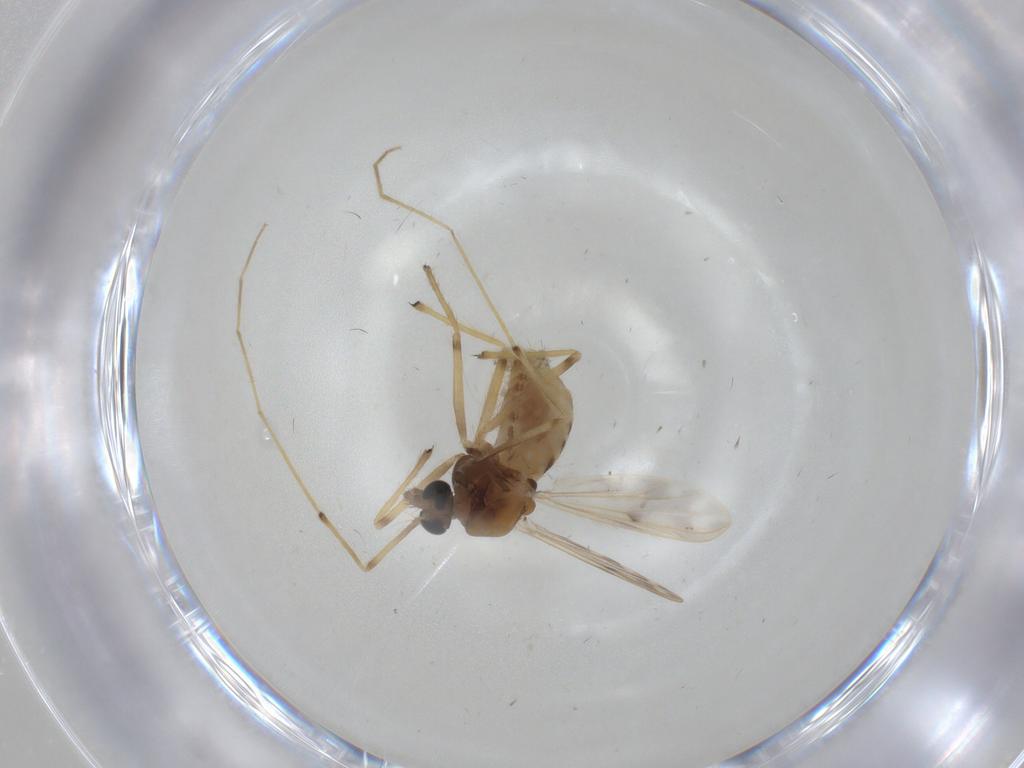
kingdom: Animalia
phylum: Arthropoda
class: Insecta
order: Diptera
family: Chironomidae
